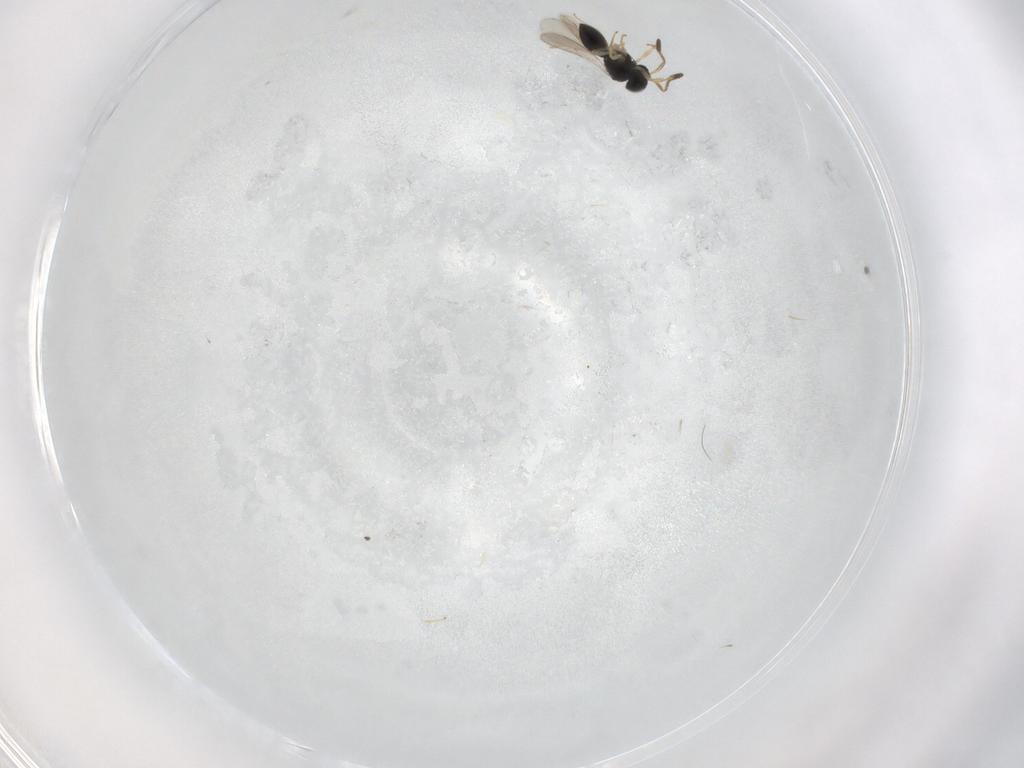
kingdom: Animalia
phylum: Arthropoda
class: Insecta
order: Hymenoptera
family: Scelionidae
